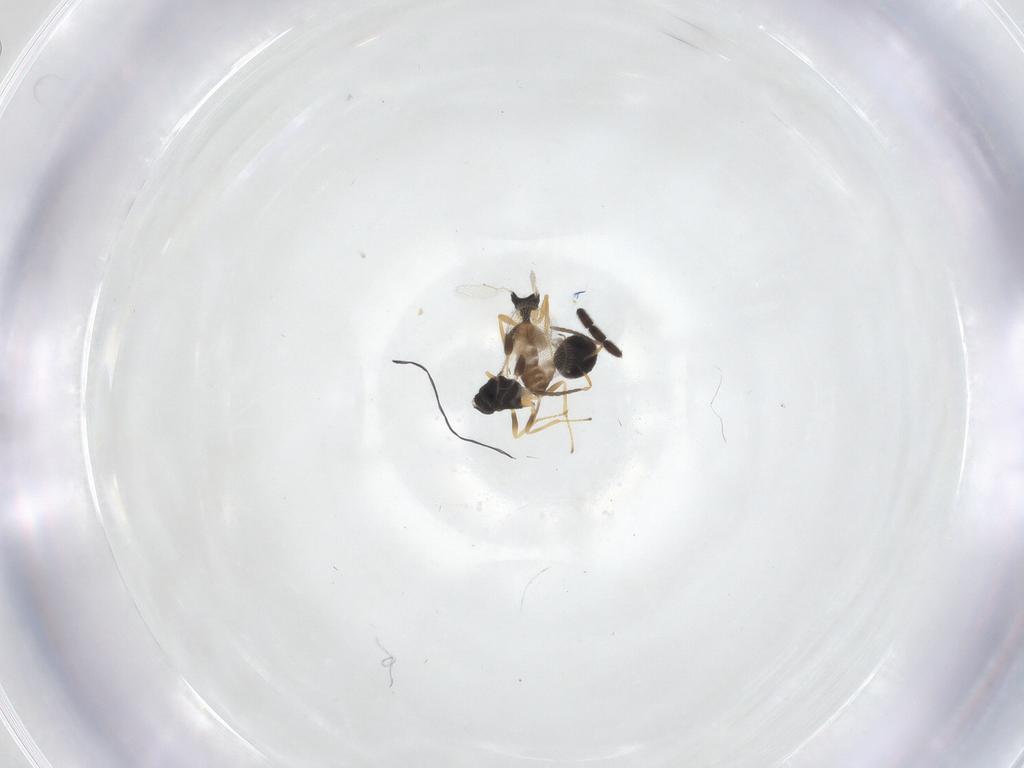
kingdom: Animalia
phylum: Arthropoda
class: Insecta
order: Hymenoptera
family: Pteromalidae
